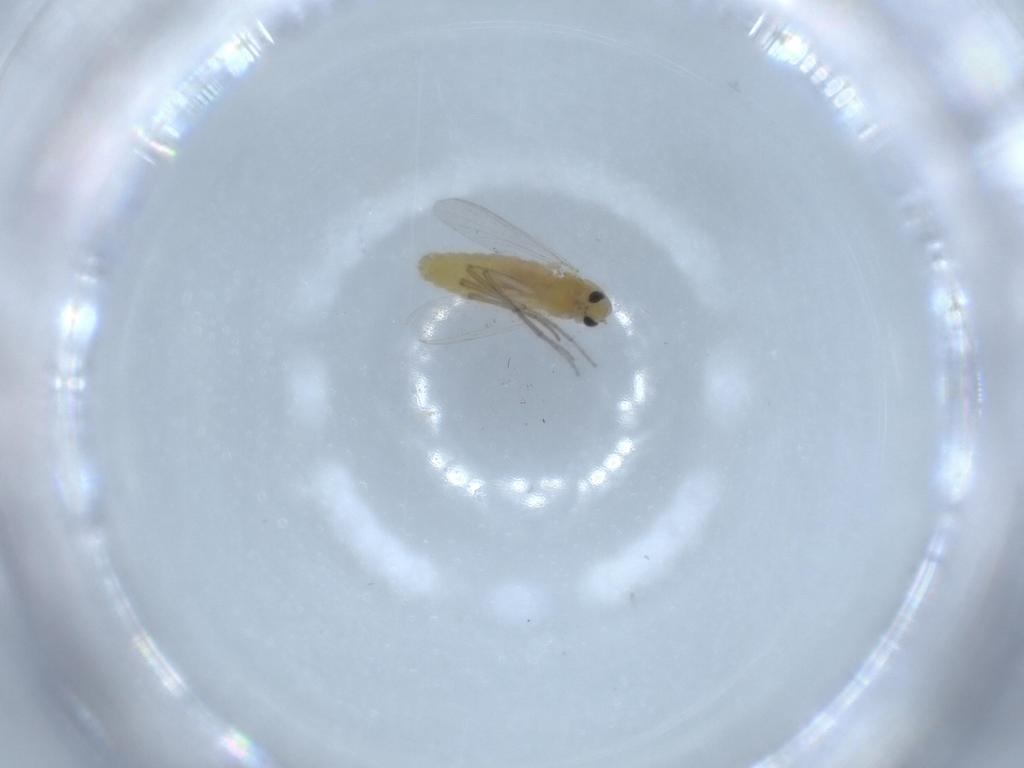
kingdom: Animalia
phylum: Arthropoda
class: Insecta
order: Diptera
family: Chironomidae
